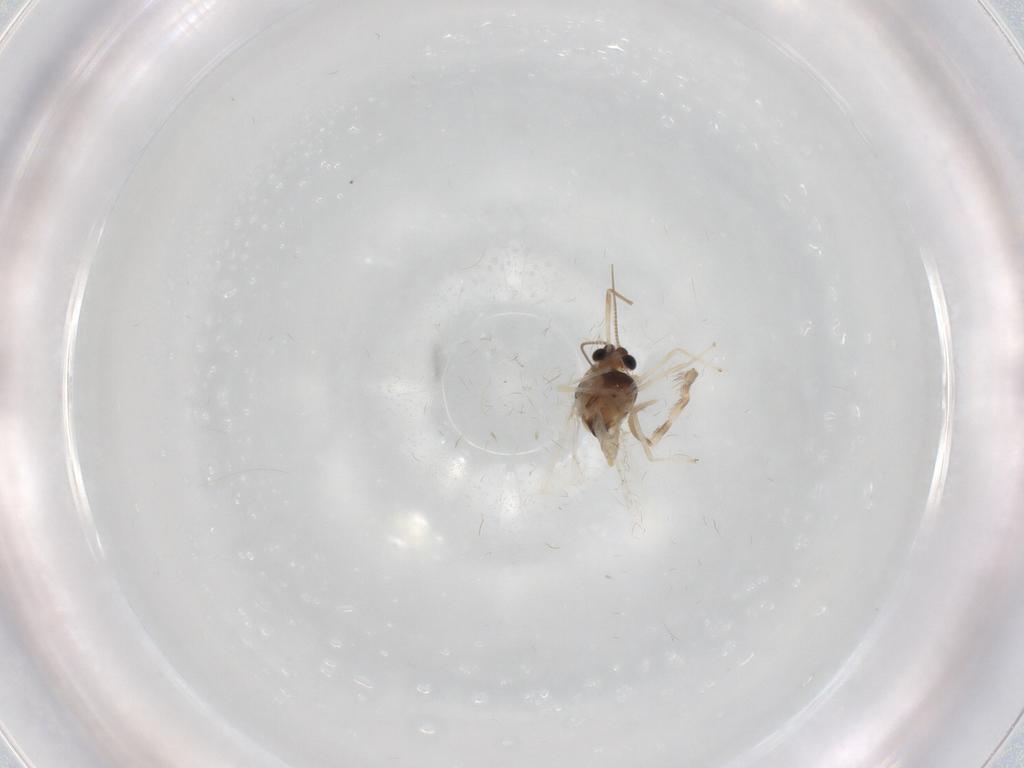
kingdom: Animalia
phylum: Arthropoda
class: Insecta
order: Diptera
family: Chironomidae
